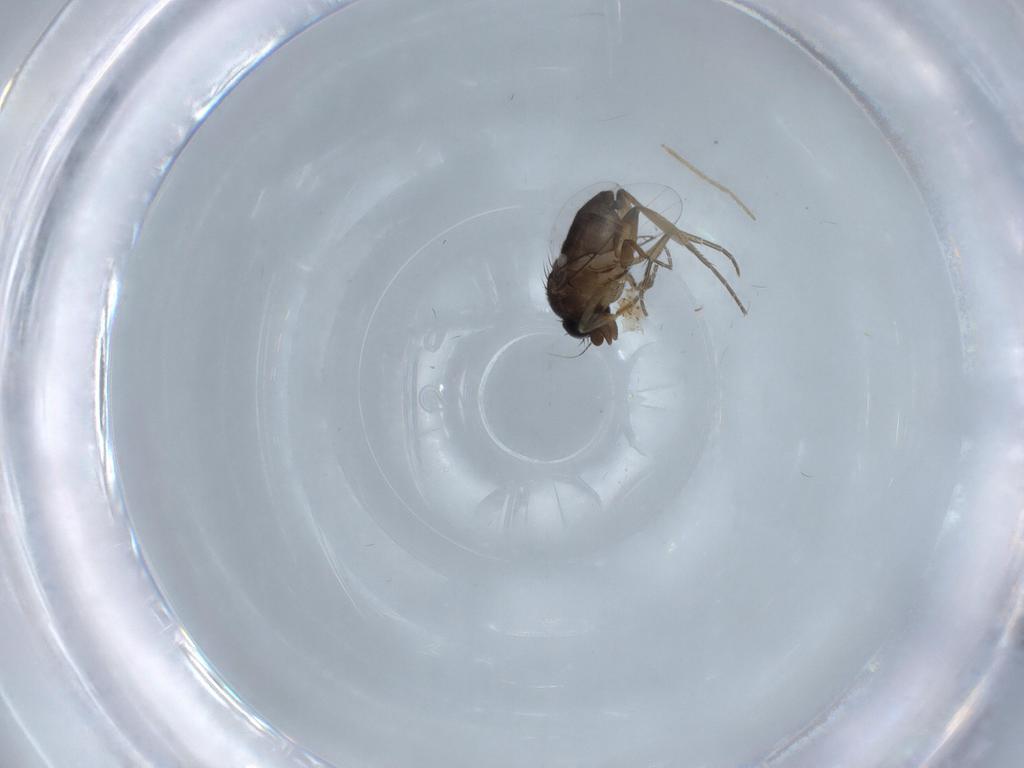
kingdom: Animalia
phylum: Arthropoda
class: Insecta
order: Diptera
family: Phoridae
